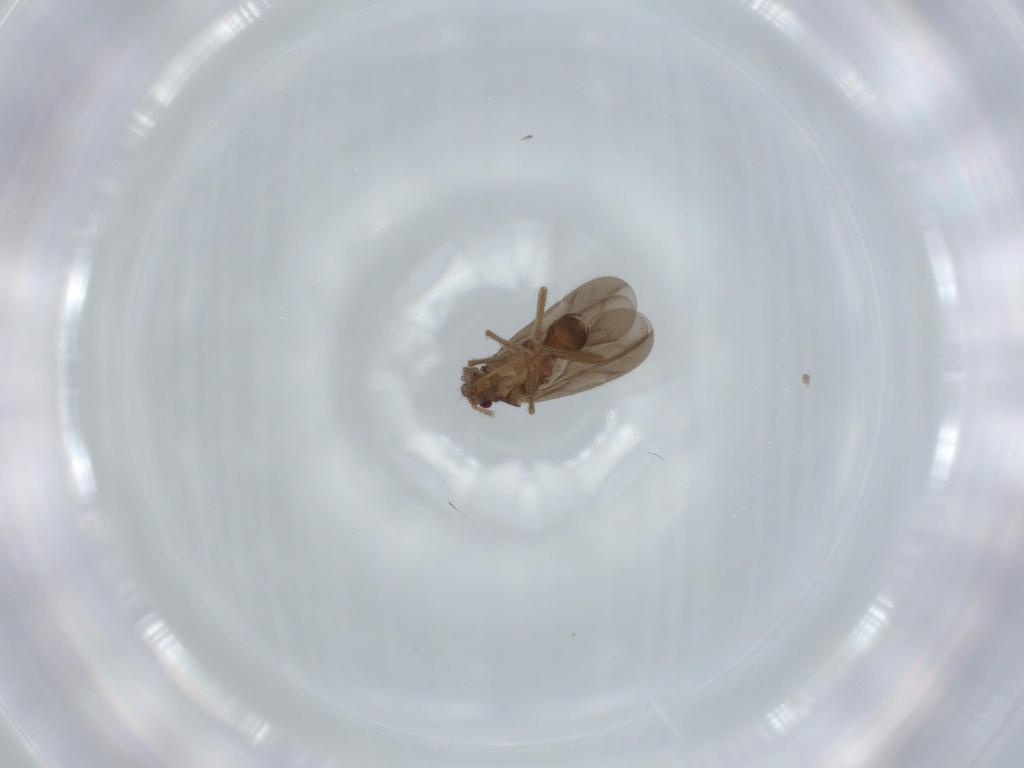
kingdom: Animalia
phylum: Arthropoda
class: Insecta
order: Hemiptera
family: Ceratocombidae
